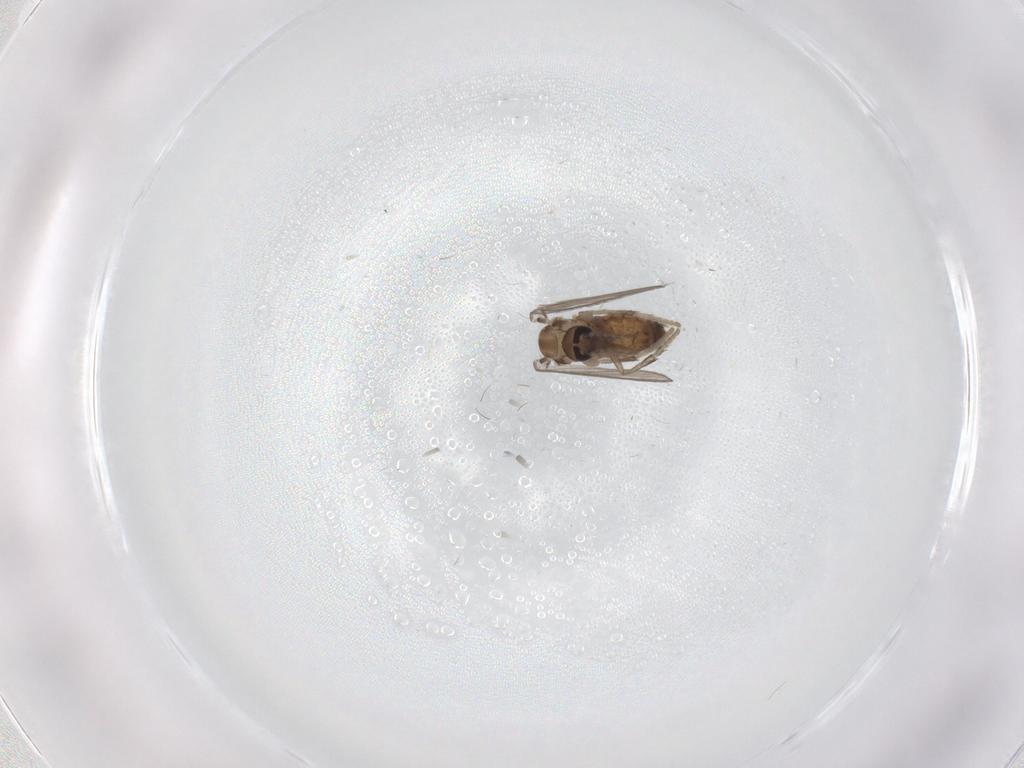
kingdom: Animalia
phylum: Arthropoda
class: Insecta
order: Diptera
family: Psychodidae
